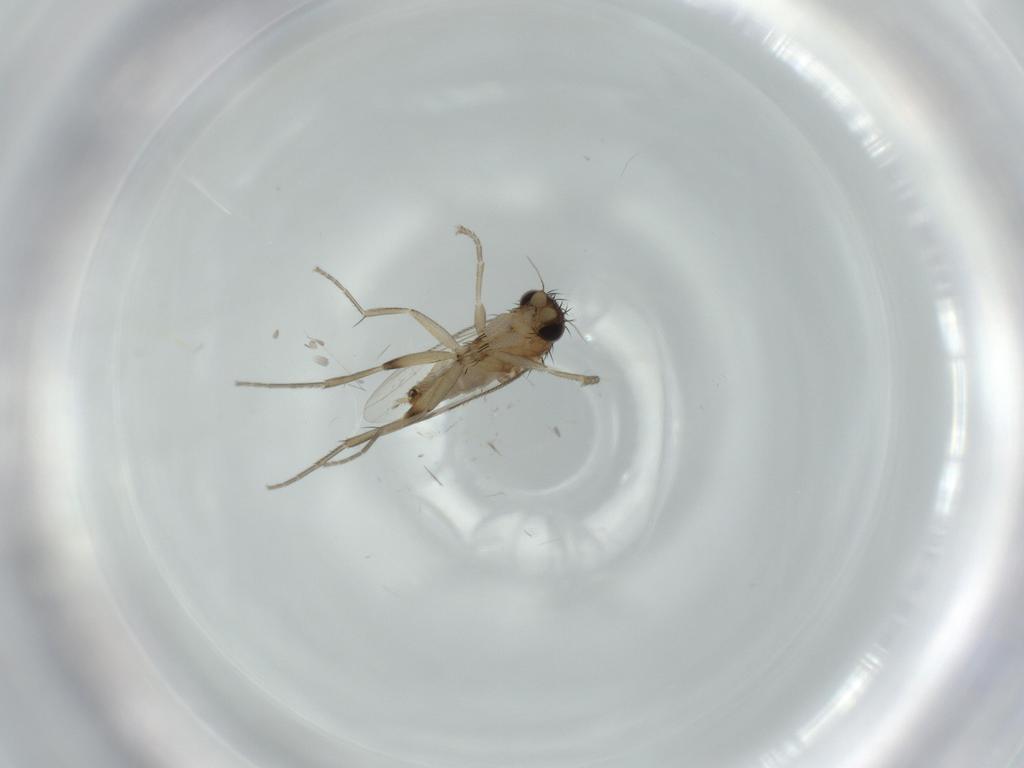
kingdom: Animalia
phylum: Arthropoda
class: Insecta
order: Diptera
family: Phoridae
